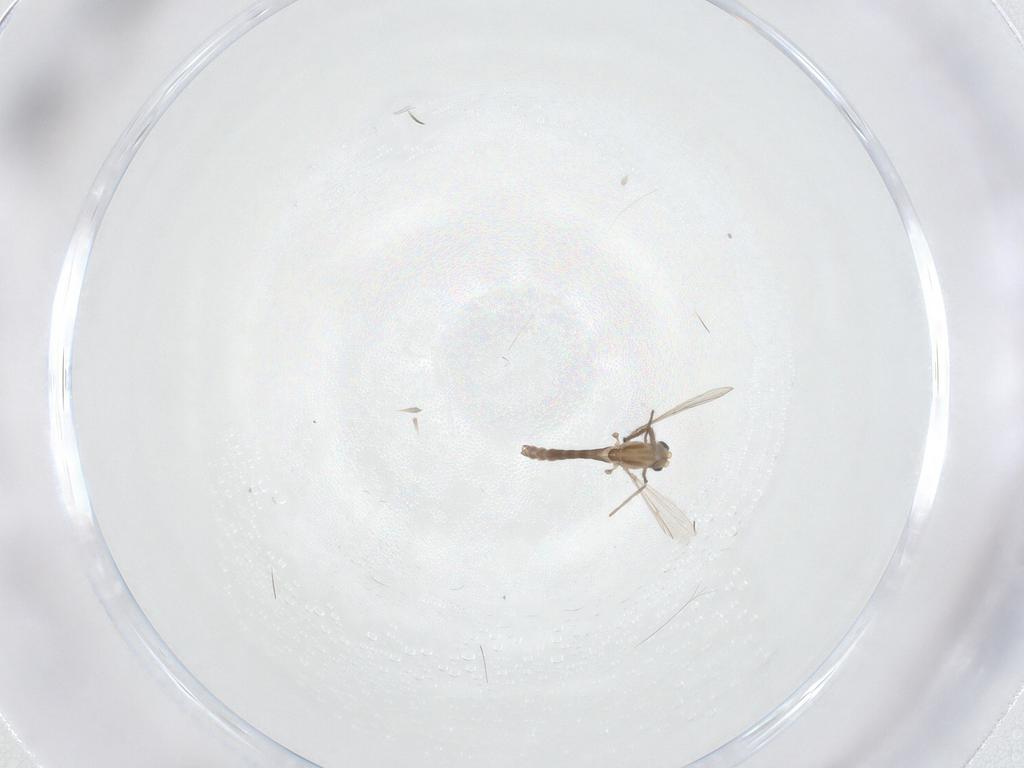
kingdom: Animalia
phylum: Arthropoda
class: Insecta
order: Diptera
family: Chironomidae
